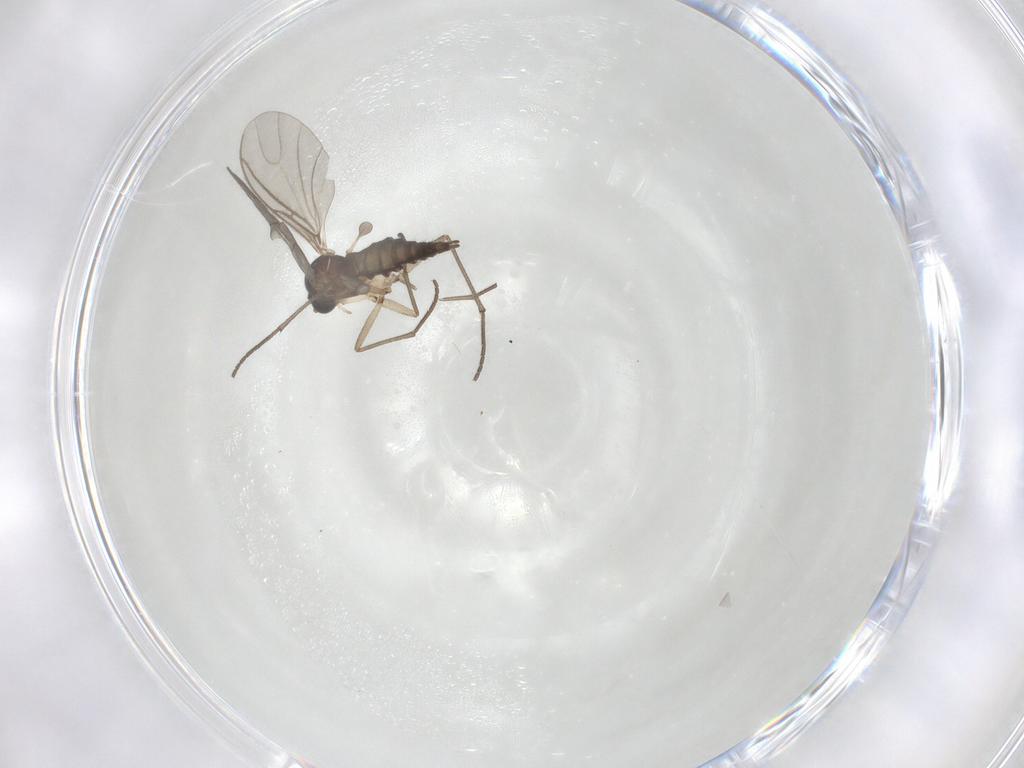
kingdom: Animalia
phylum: Arthropoda
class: Insecta
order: Diptera
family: Sciaridae
